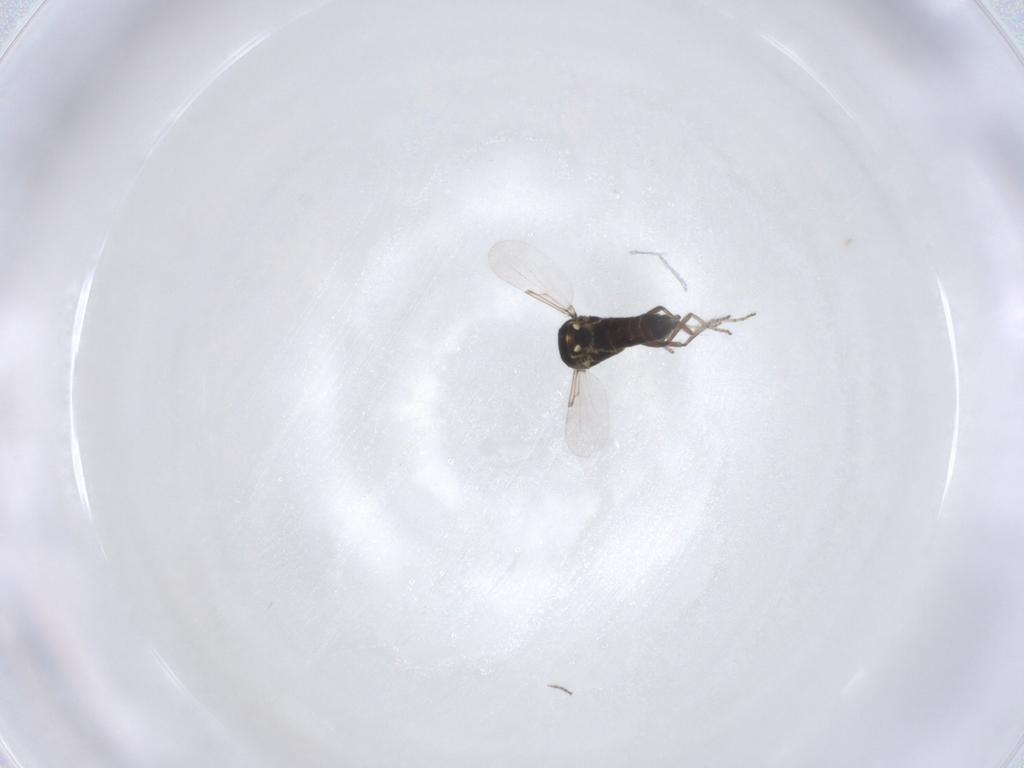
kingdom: Animalia
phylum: Arthropoda
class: Insecta
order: Diptera
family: Ceratopogonidae
